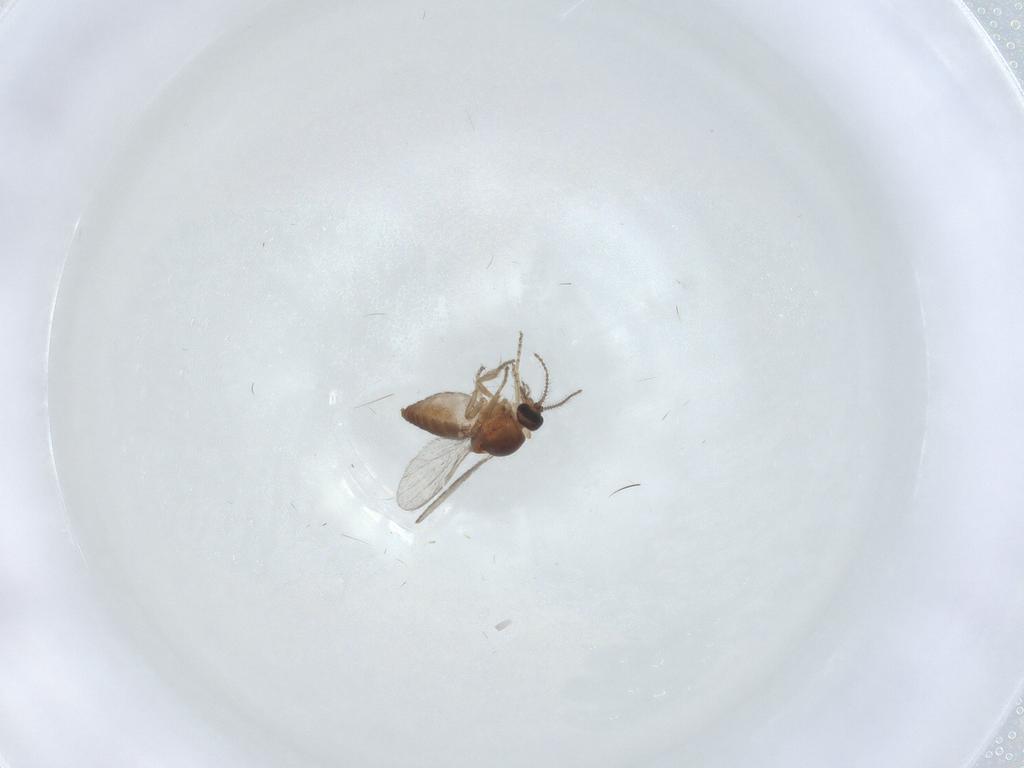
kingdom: Animalia
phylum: Arthropoda
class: Insecta
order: Diptera
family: Ceratopogonidae
